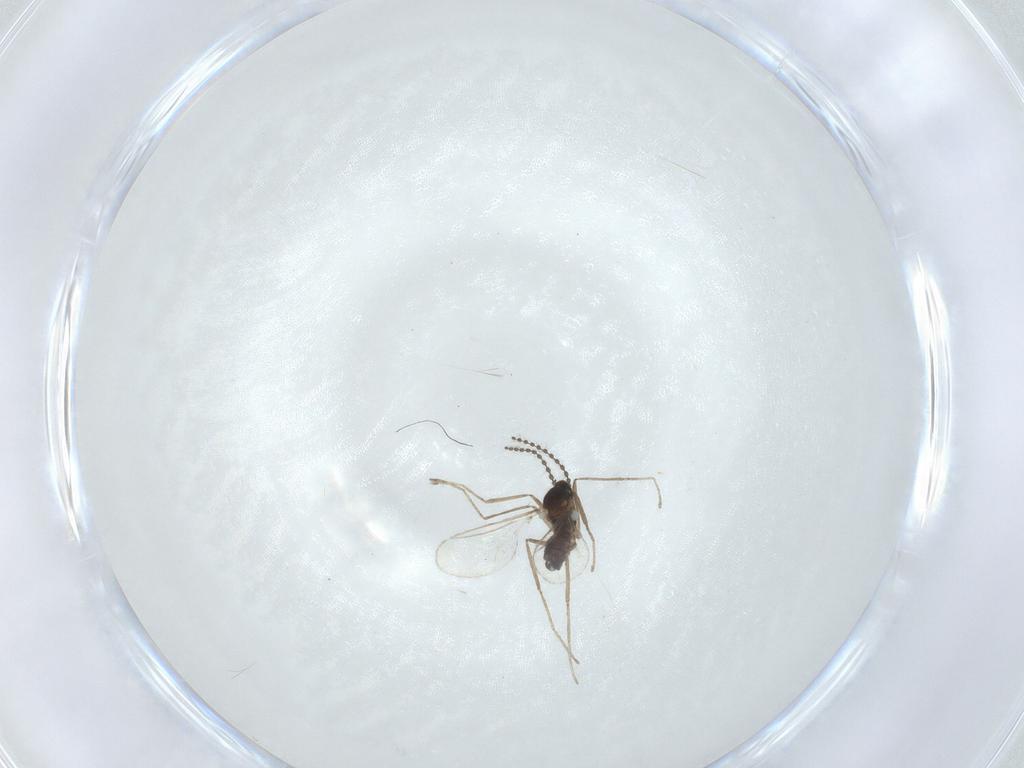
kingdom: Animalia
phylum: Arthropoda
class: Insecta
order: Diptera
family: Cecidomyiidae
